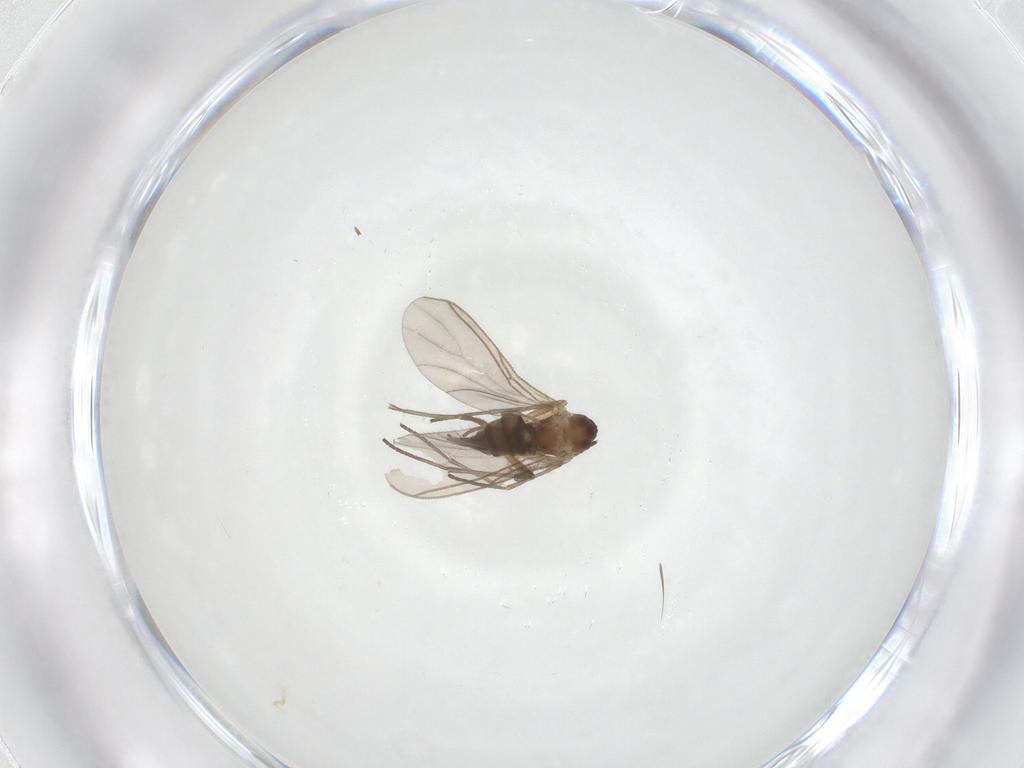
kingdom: Animalia
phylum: Arthropoda
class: Insecta
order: Diptera
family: Sciaridae
